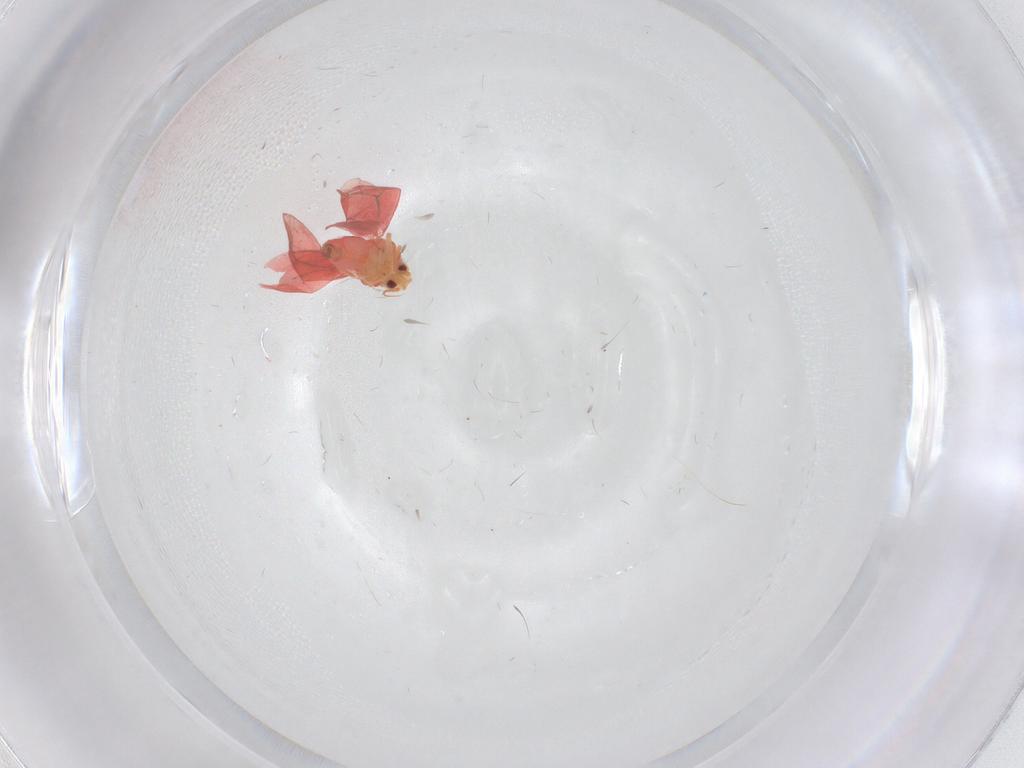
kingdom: Animalia
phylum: Arthropoda
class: Insecta
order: Hemiptera
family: Aleyrodidae
